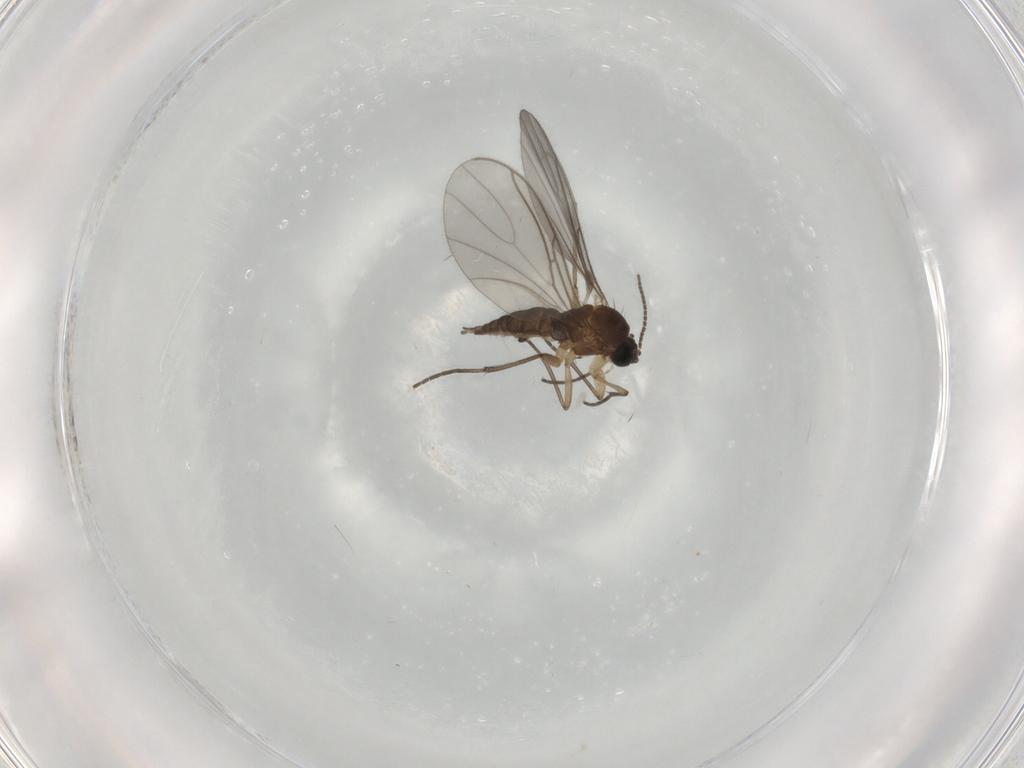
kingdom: Animalia
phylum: Arthropoda
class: Insecta
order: Diptera
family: Sciaridae
